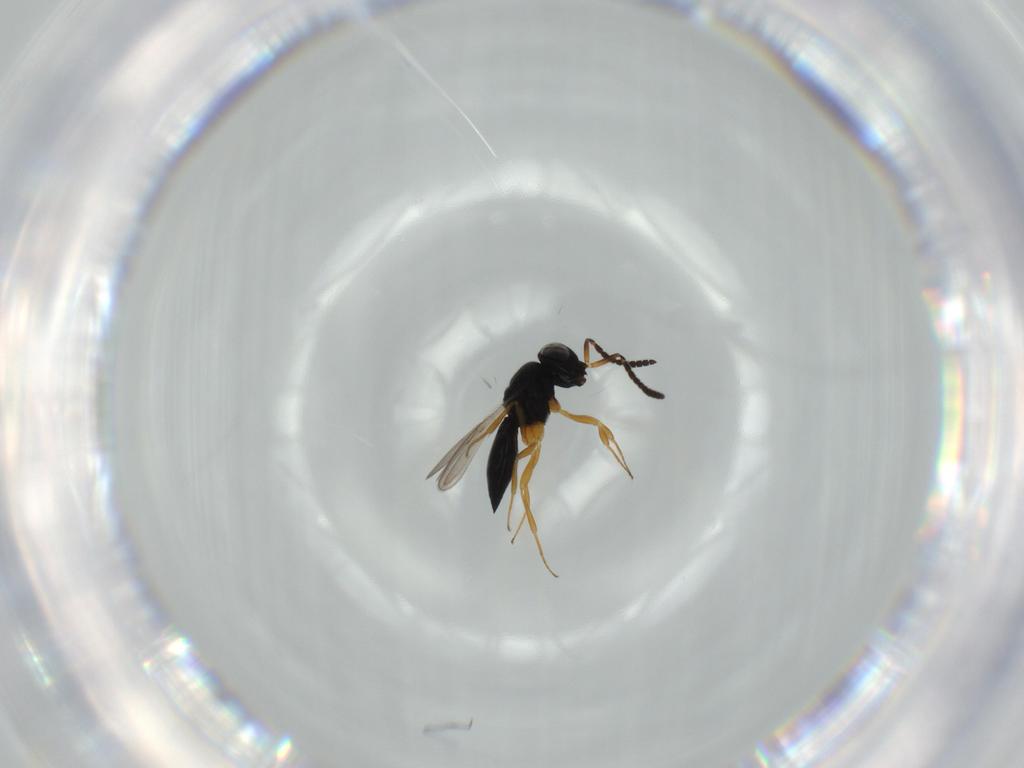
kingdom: Animalia
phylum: Arthropoda
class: Insecta
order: Hymenoptera
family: Scelionidae
